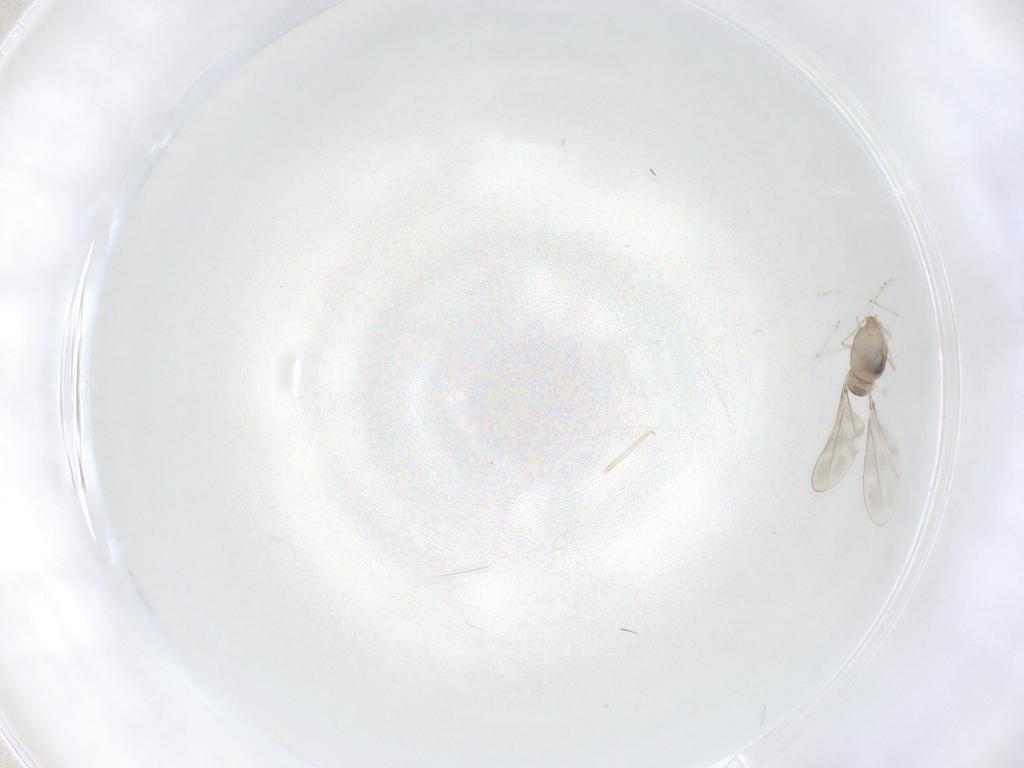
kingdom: Animalia
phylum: Arthropoda
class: Insecta
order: Diptera
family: Cecidomyiidae
